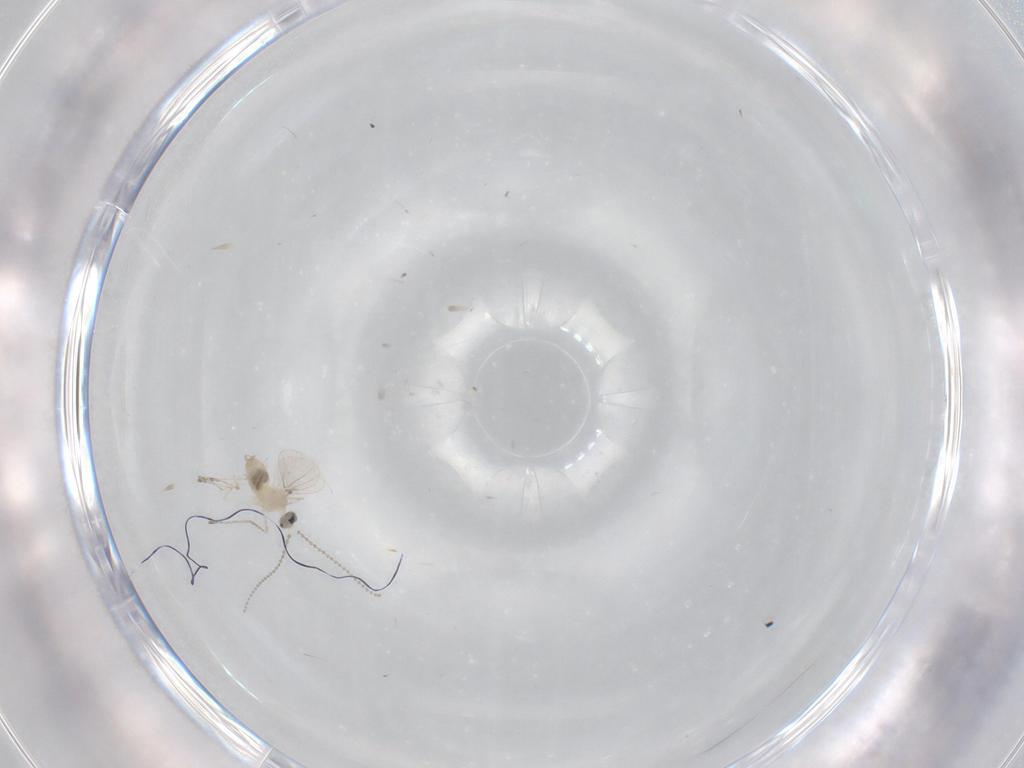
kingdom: Animalia
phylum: Arthropoda
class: Insecta
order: Diptera
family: Cecidomyiidae
